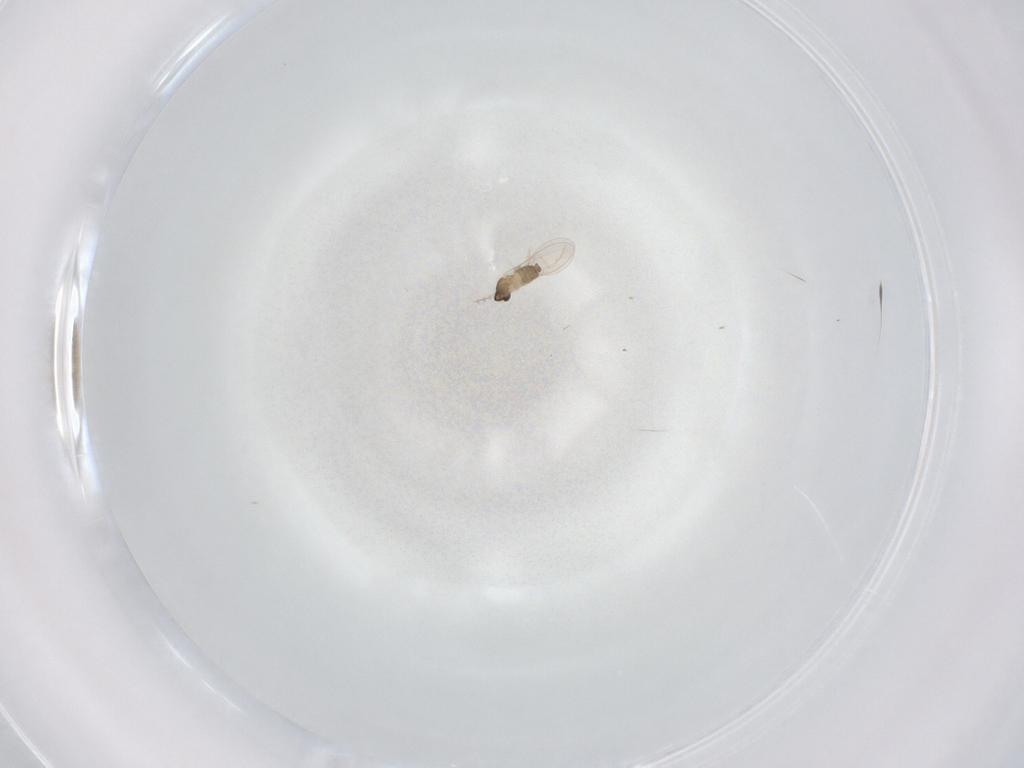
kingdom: Animalia
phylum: Arthropoda
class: Insecta
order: Diptera
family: Cecidomyiidae
